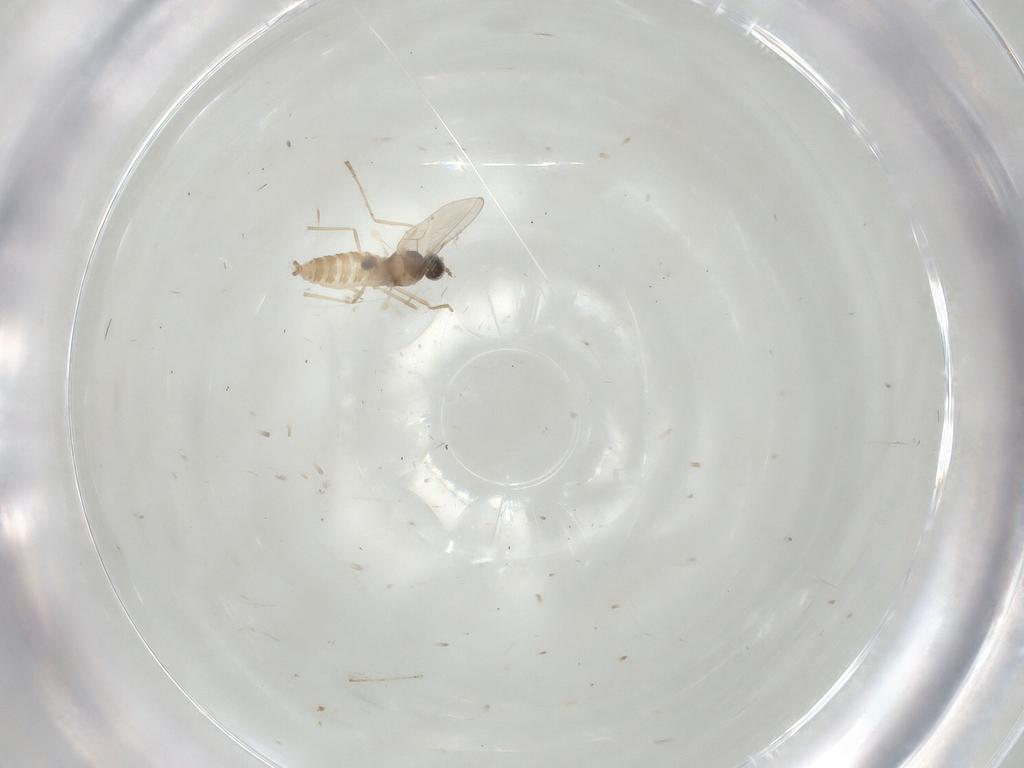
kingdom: Animalia
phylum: Arthropoda
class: Insecta
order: Diptera
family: Cecidomyiidae
